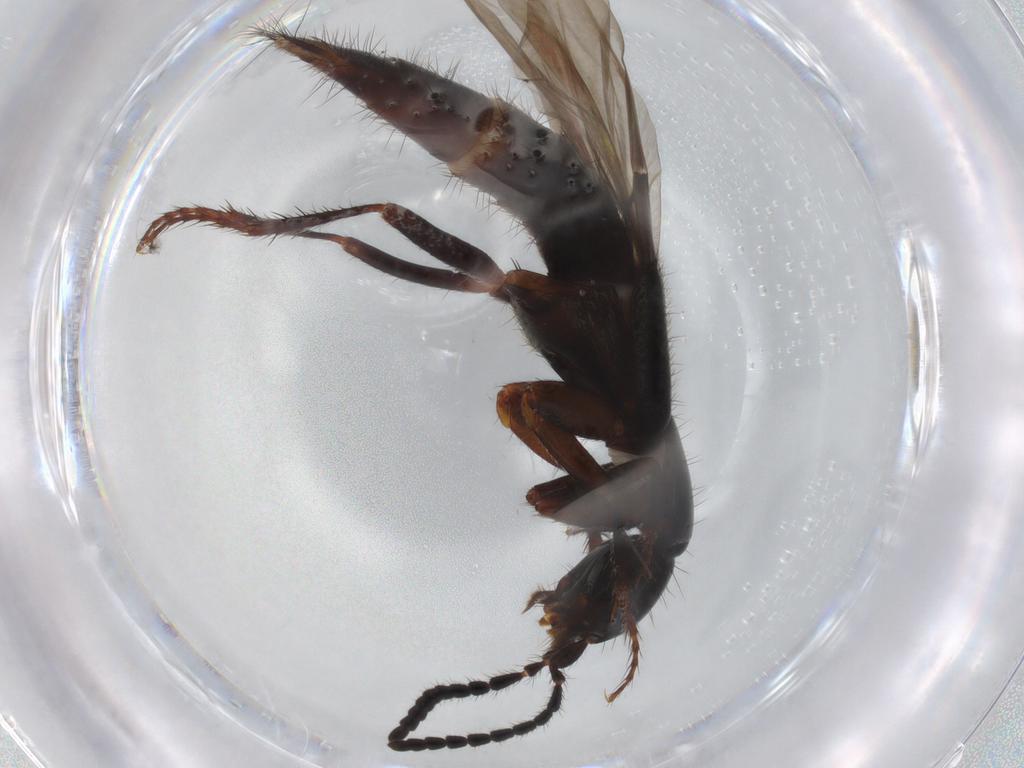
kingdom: Animalia
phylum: Arthropoda
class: Insecta
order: Coleoptera
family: Staphylinidae
